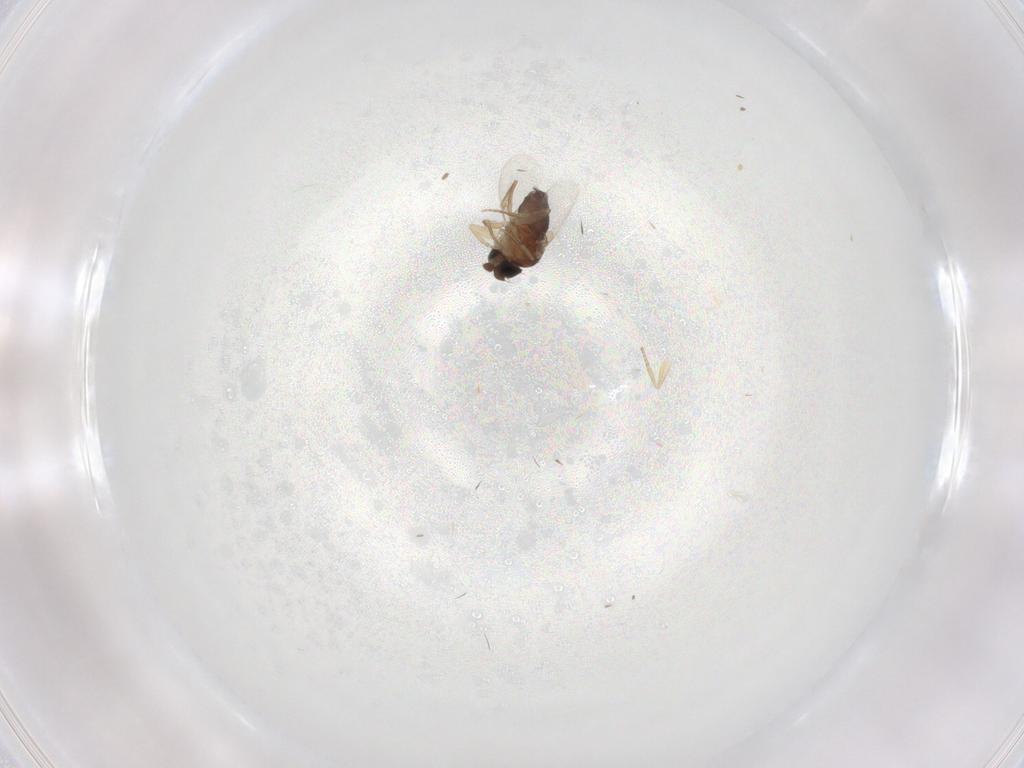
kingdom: Animalia
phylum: Arthropoda
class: Insecta
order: Diptera
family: Phoridae
